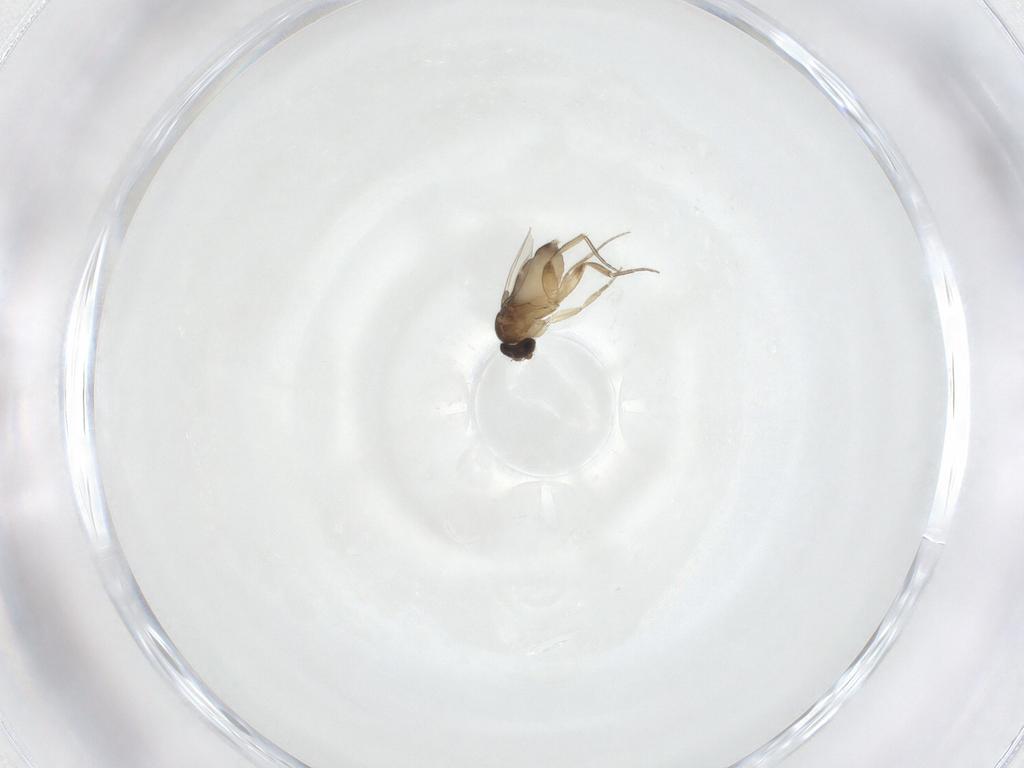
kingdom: Animalia
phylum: Arthropoda
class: Insecta
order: Diptera
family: Phoridae
